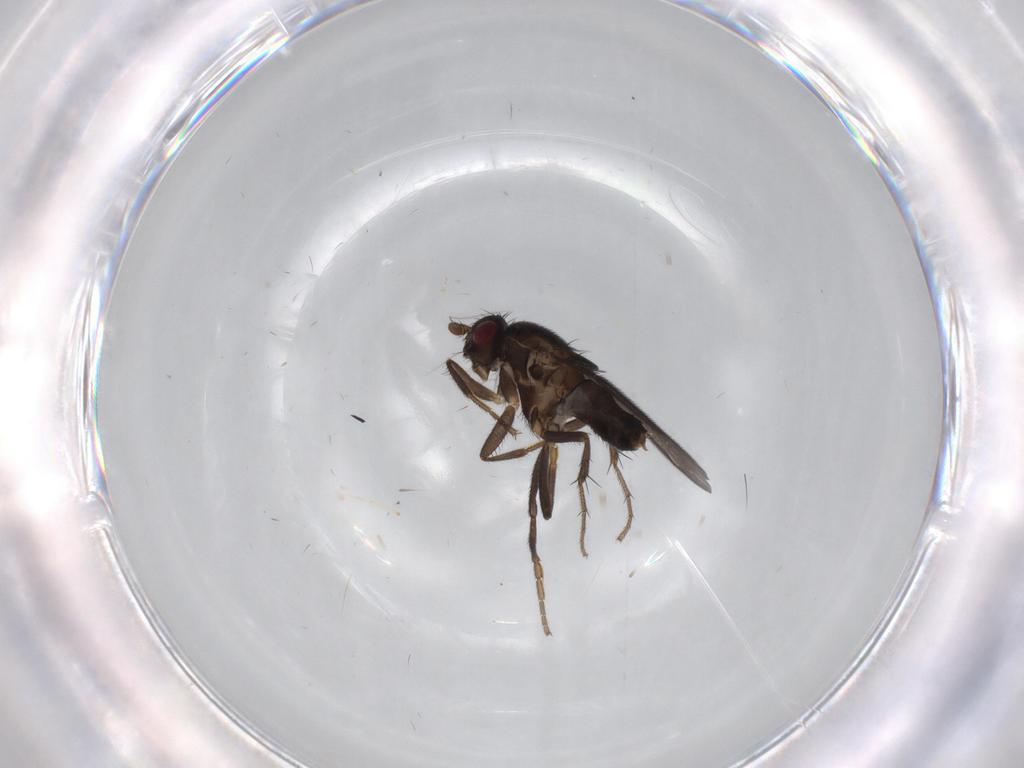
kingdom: Animalia
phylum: Arthropoda
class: Insecta
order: Diptera
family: Sphaeroceridae
